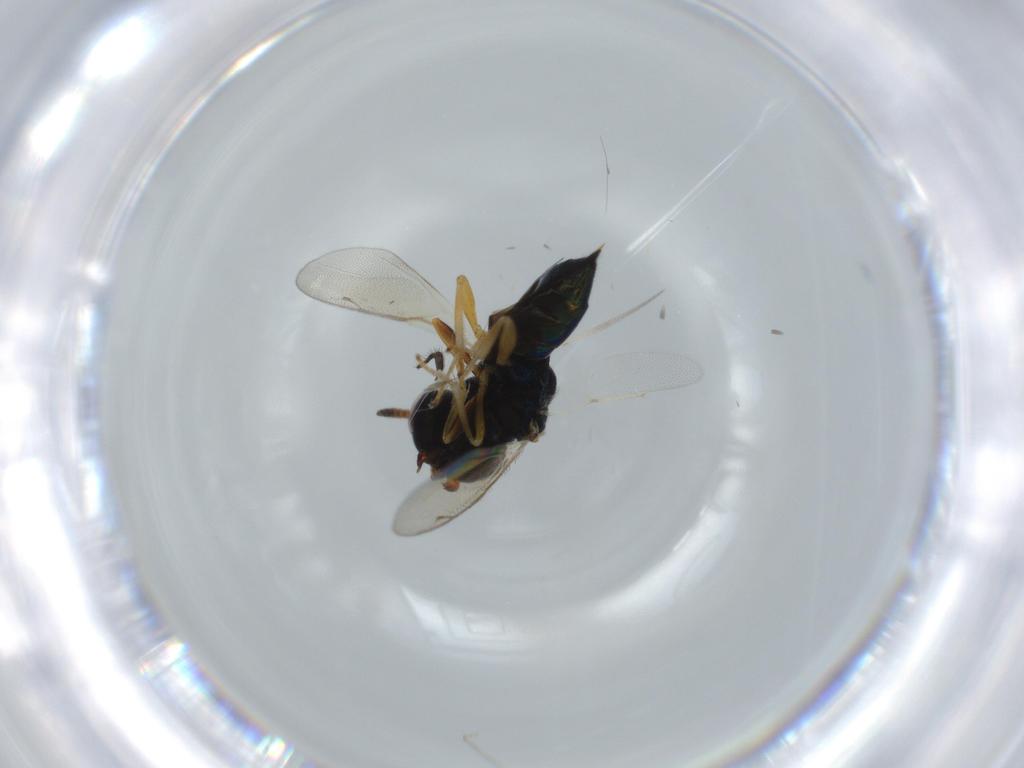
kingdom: Animalia
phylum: Arthropoda
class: Insecta
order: Hymenoptera
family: Pteromalidae
